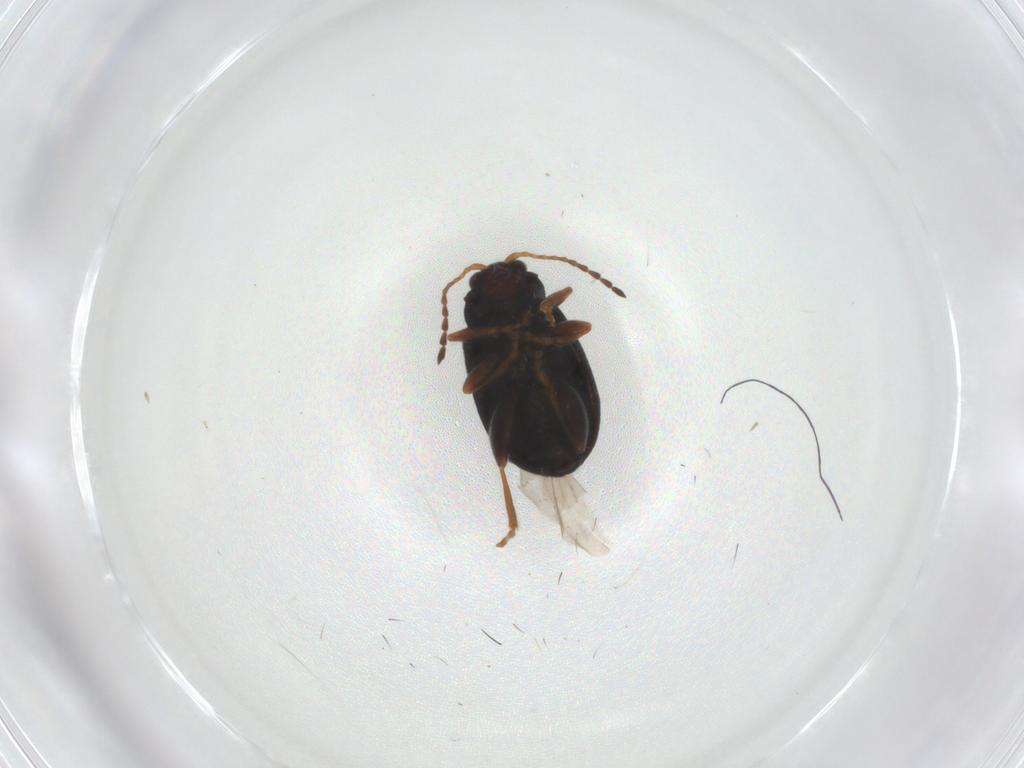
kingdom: Animalia
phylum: Arthropoda
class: Insecta
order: Coleoptera
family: Chrysomelidae
